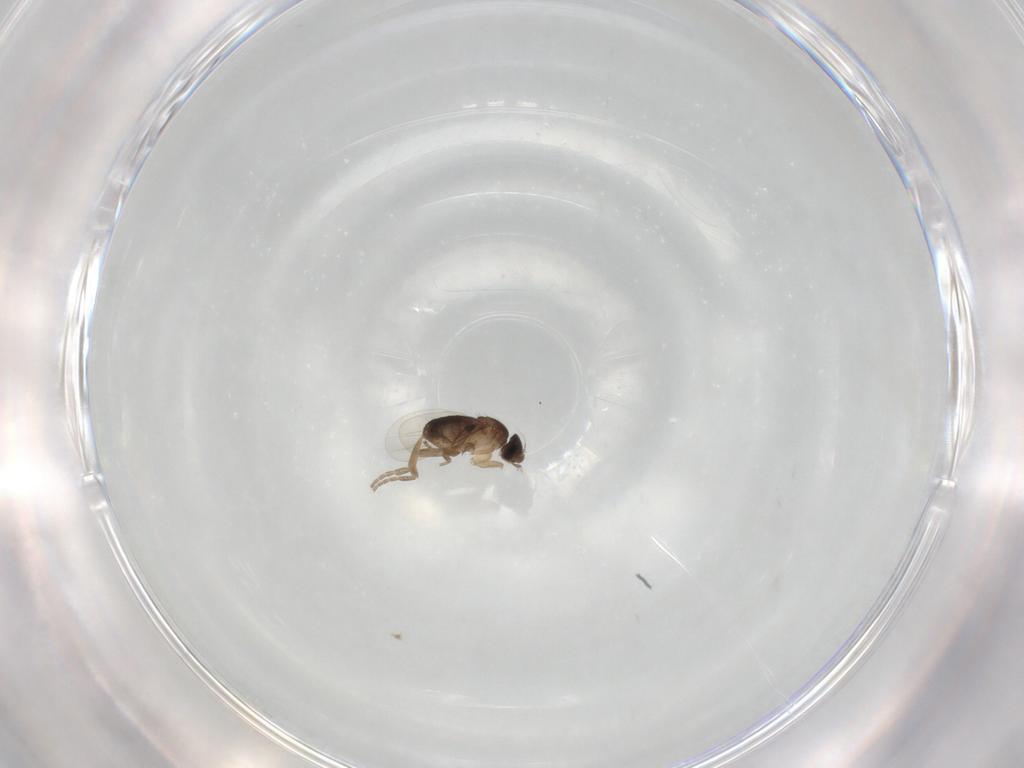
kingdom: Animalia
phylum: Arthropoda
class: Insecta
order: Diptera
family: Phoridae
